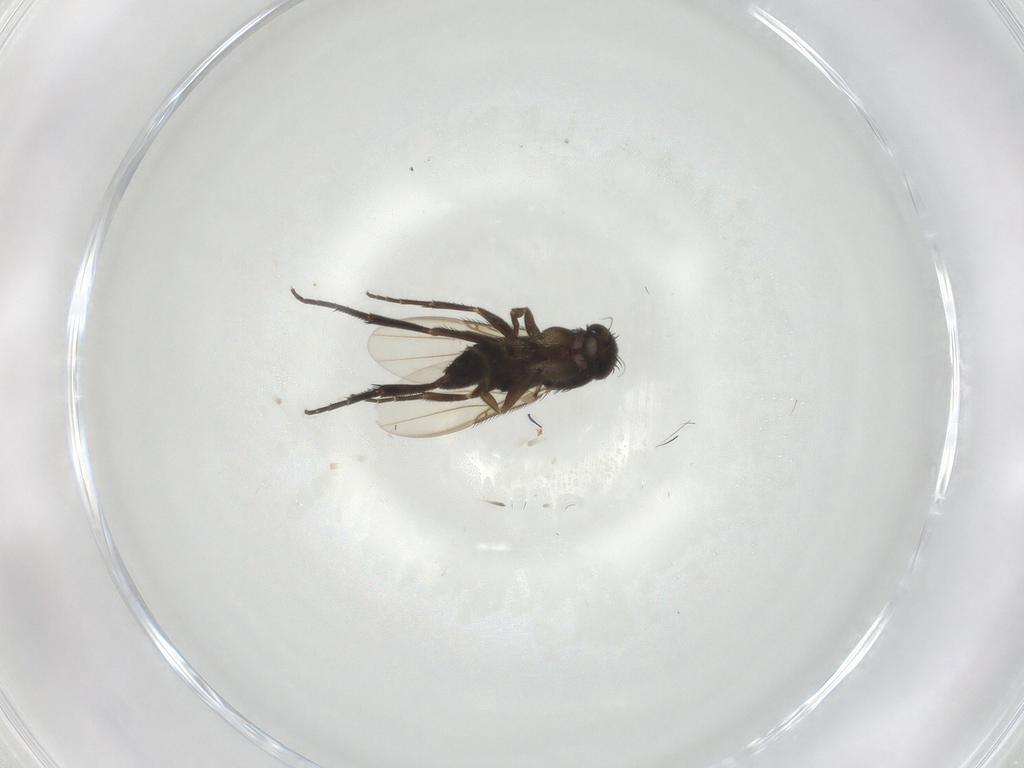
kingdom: Animalia
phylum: Arthropoda
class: Insecta
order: Diptera
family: Phoridae
